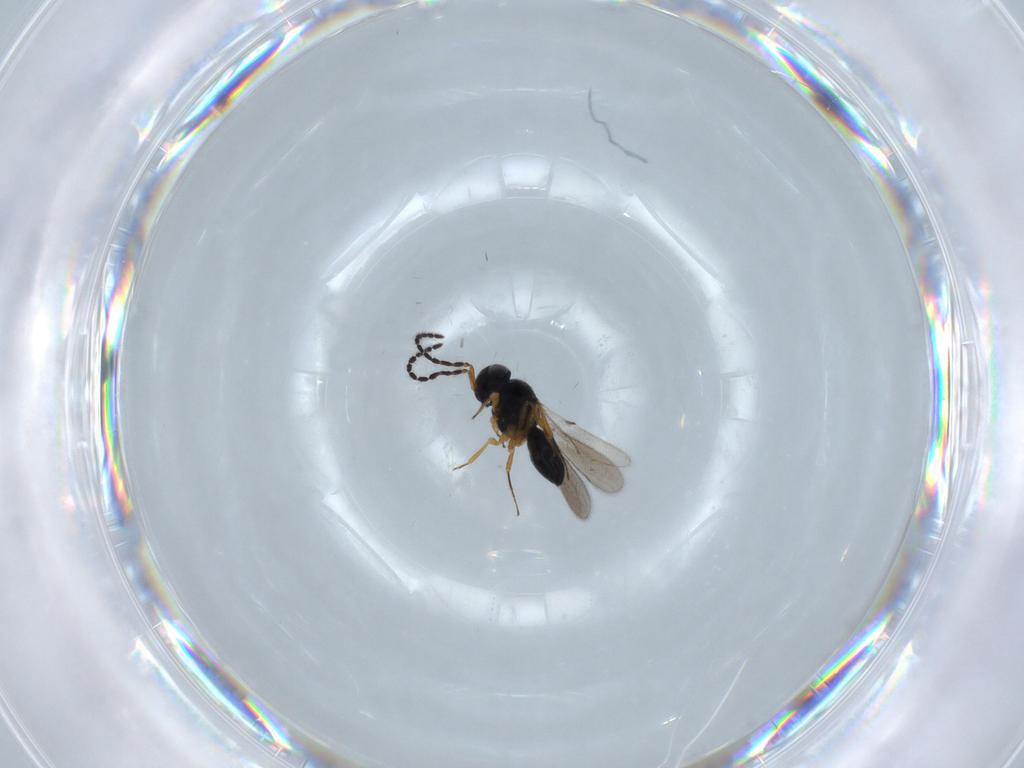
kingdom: Animalia
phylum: Arthropoda
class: Insecta
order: Hymenoptera
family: Scelionidae
